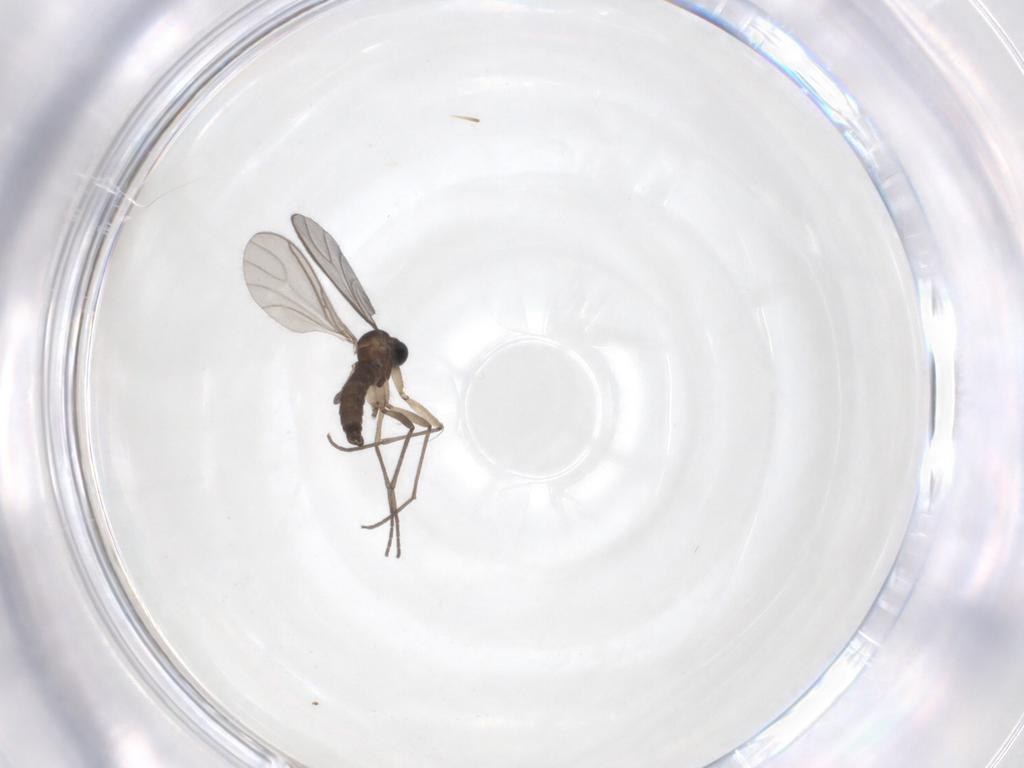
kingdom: Animalia
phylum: Arthropoda
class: Insecta
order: Diptera
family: Sciaridae
